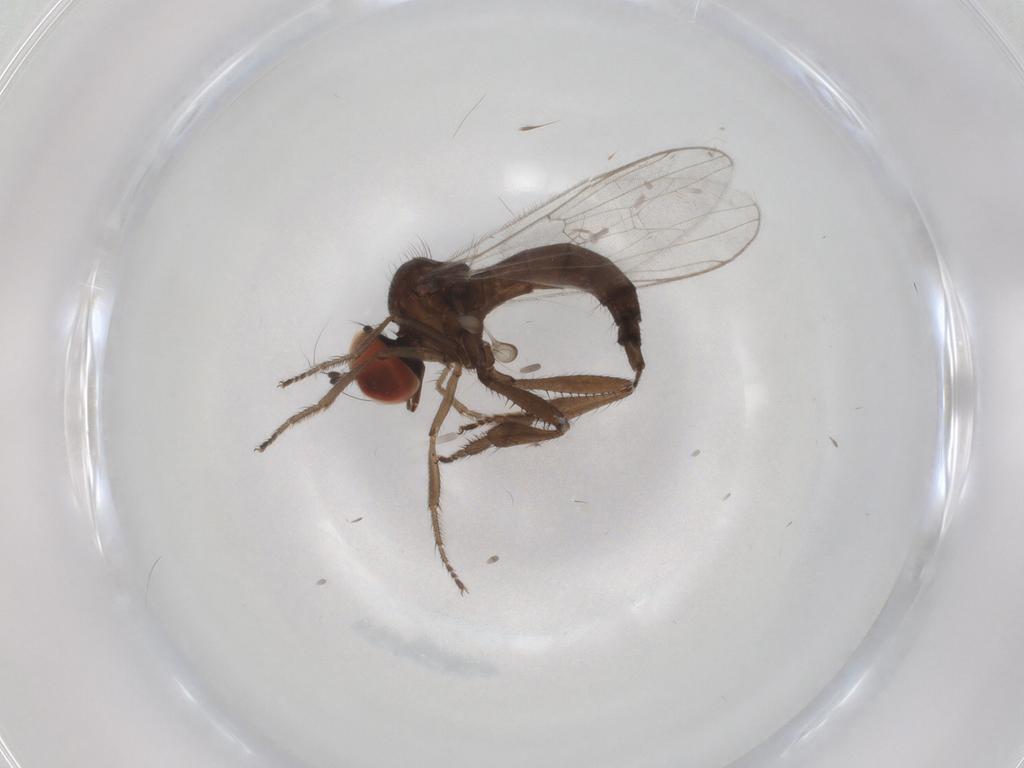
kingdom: Animalia
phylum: Arthropoda
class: Insecta
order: Diptera
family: Hybotidae
